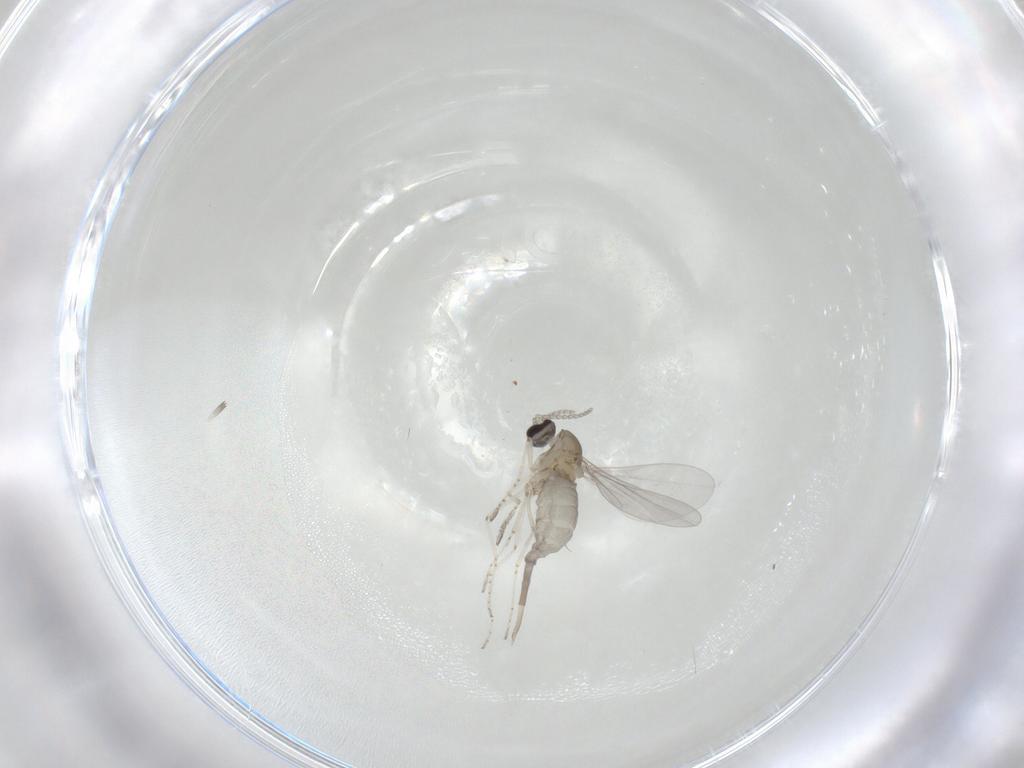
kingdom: Animalia
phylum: Arthropoda
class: Insecta
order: Diptera
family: Cecidomyiidae
